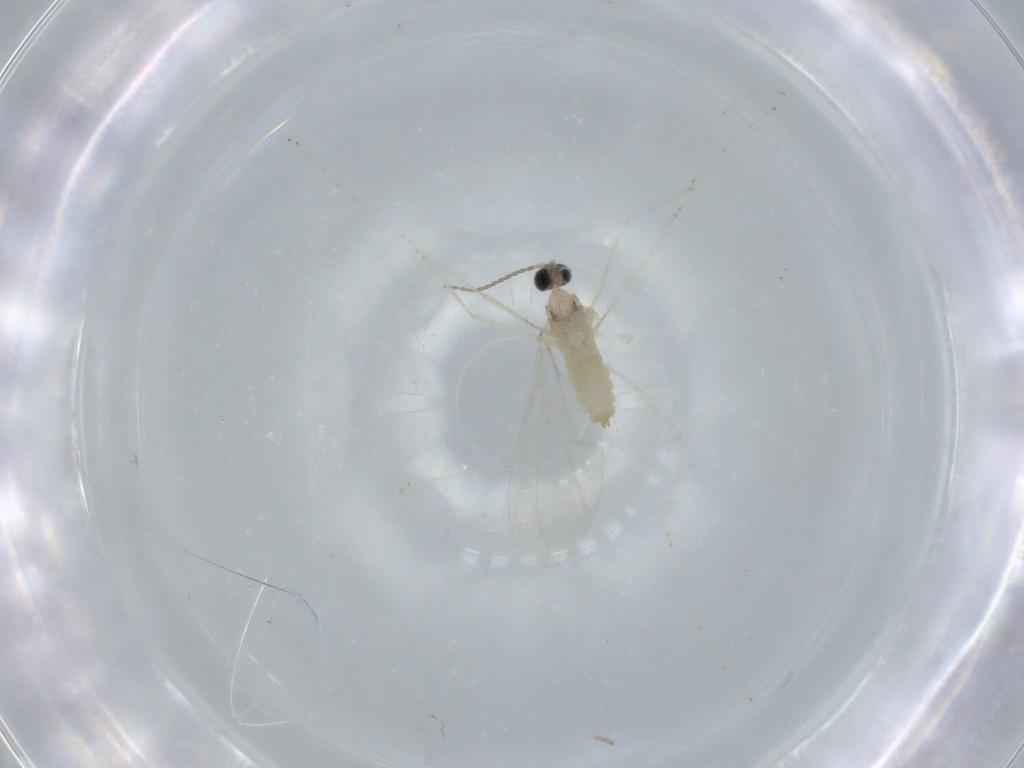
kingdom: Animalia
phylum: Arthropoda
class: Insecta
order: Diptera
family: Cecidomyiidae
